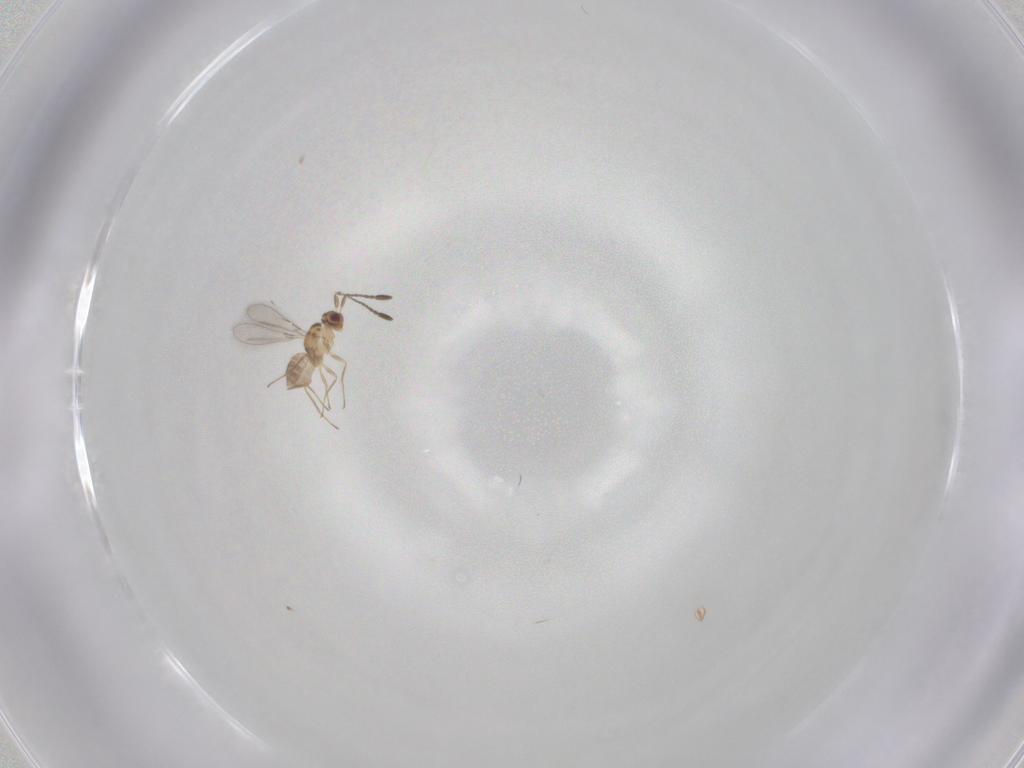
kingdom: Animalia
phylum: Arthropoda
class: Insecta
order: Hymenoptera
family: Mymaridae
